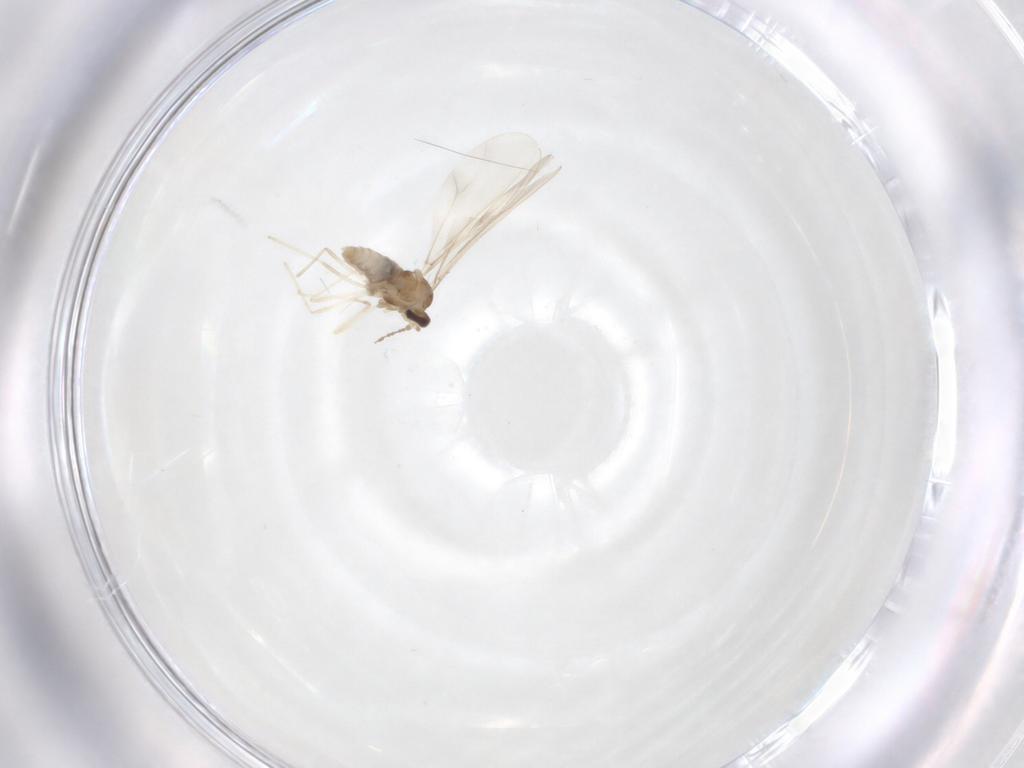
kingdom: Animalia
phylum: Arthropoda
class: Insecta
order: Diptera
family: Cecidomyiidae
